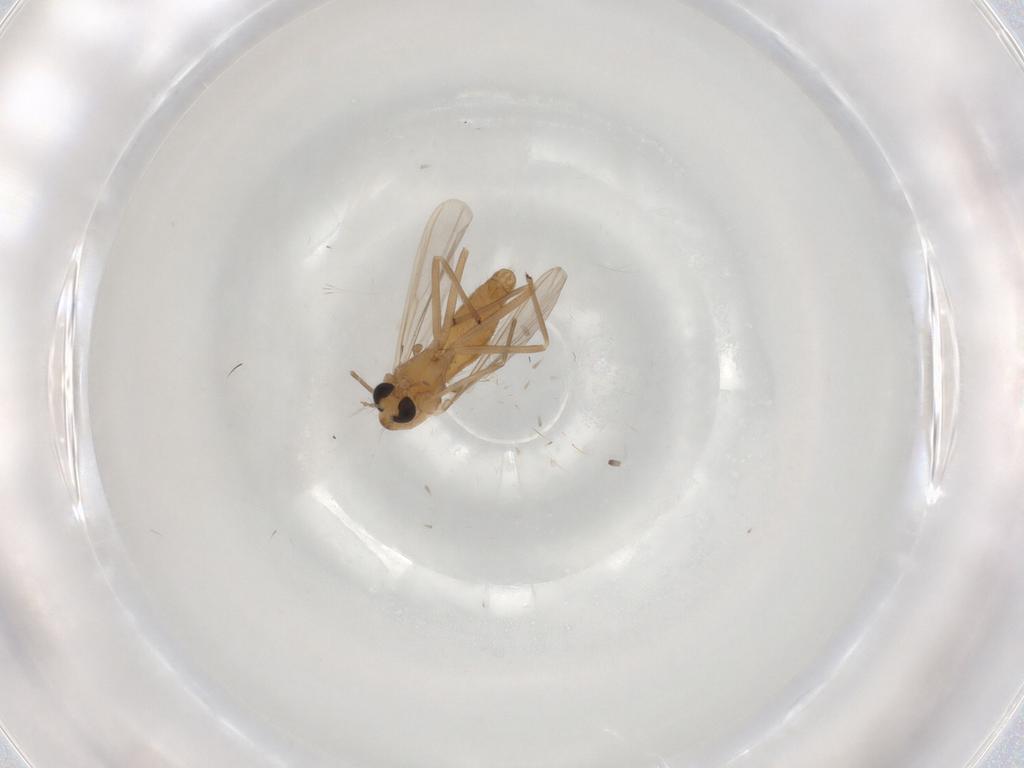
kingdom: Animalia
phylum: Arthropoda
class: Insecta
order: Diptera
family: Chironomidae
